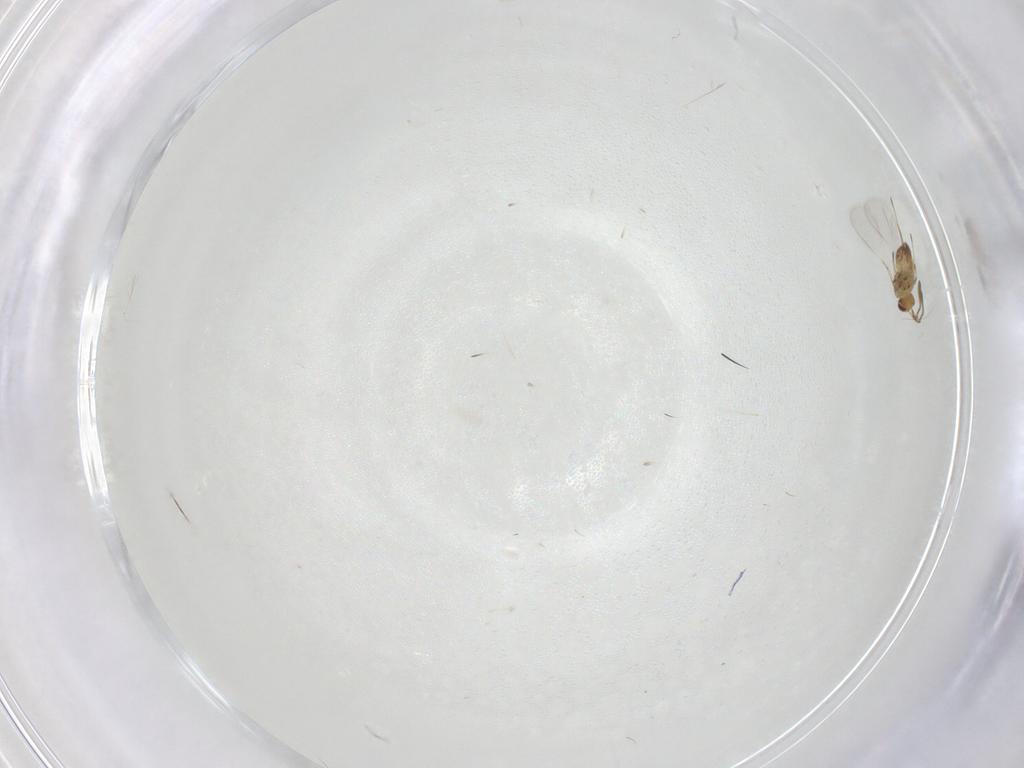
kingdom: Animalia
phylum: Arthropoda
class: Insecta
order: Hymenoptera
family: Mymaridae
